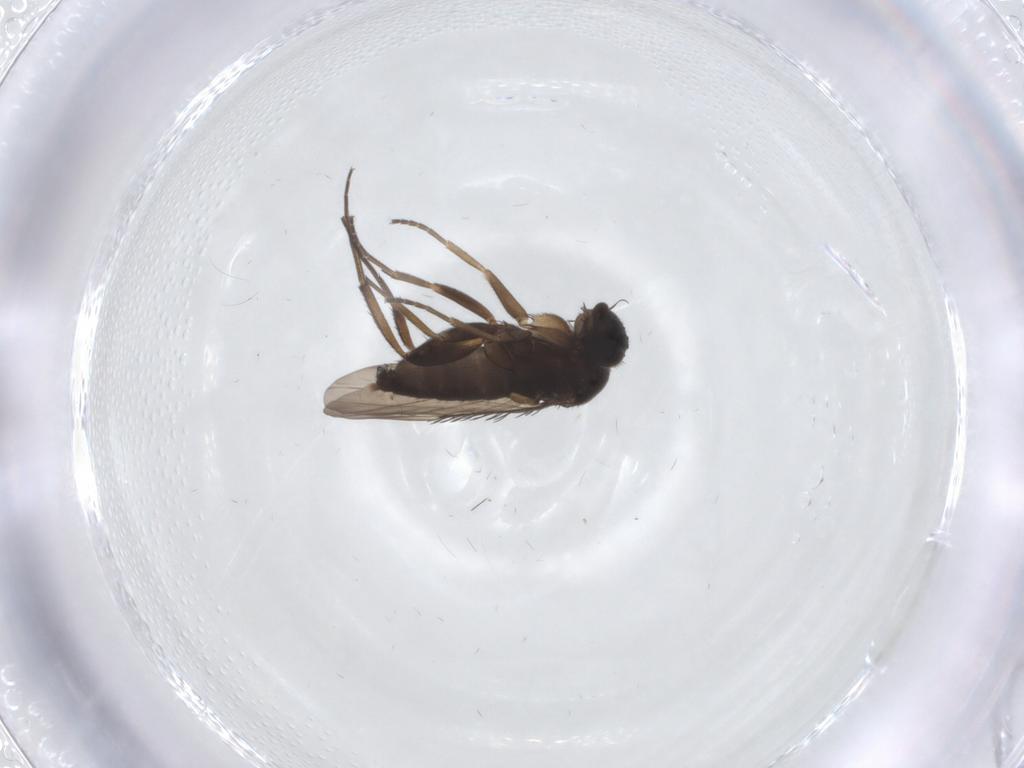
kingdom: Animalia
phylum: Arthropoda
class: Insecta
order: Diptera
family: Phoridae
